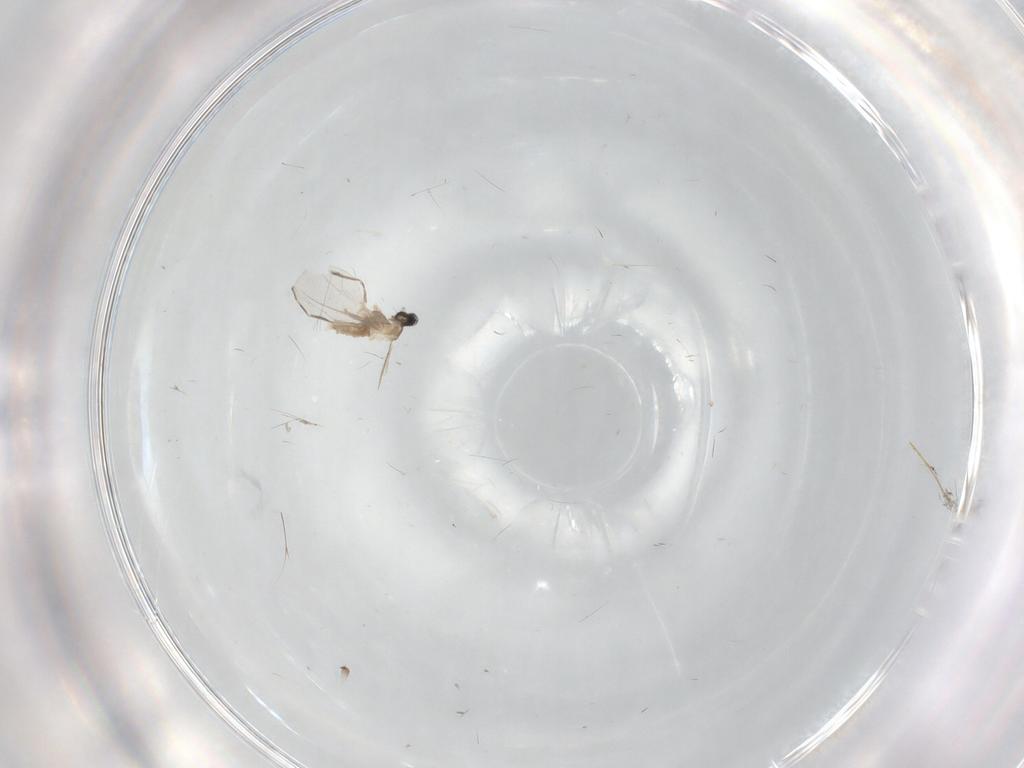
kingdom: Animalia
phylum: Arthropoda
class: Insecta
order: Diptera
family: Cecidomyiidae
